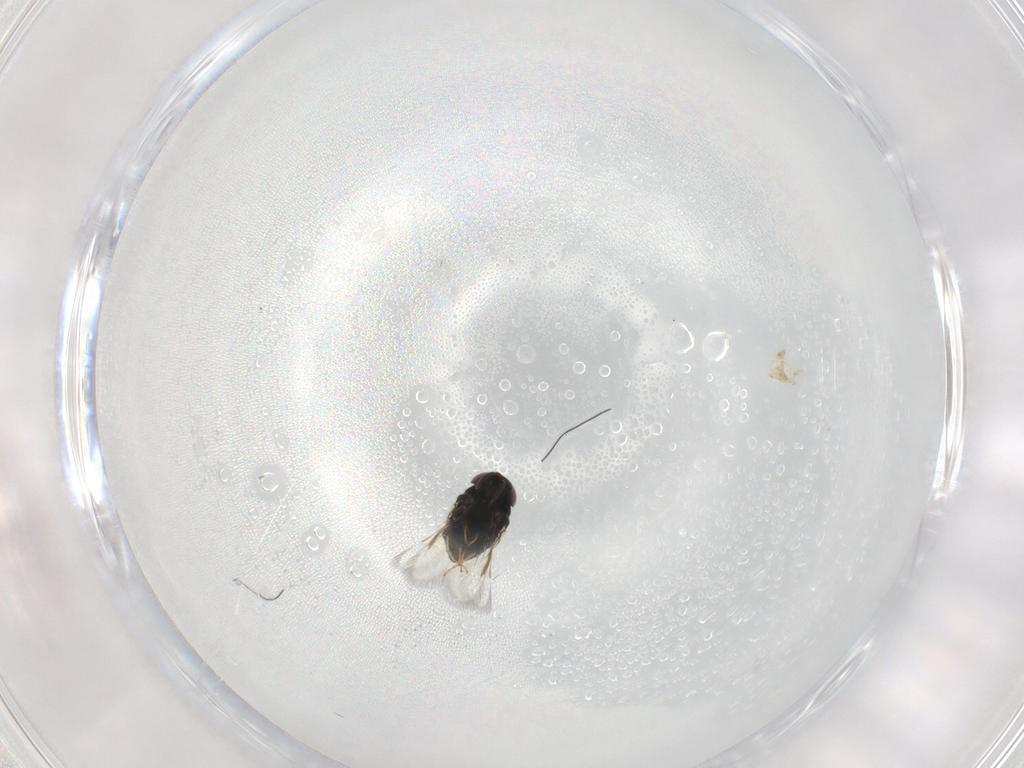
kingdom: Animalia
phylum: Arthropoda
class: Insecta
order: Hymenoptera
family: Signiphoridae
